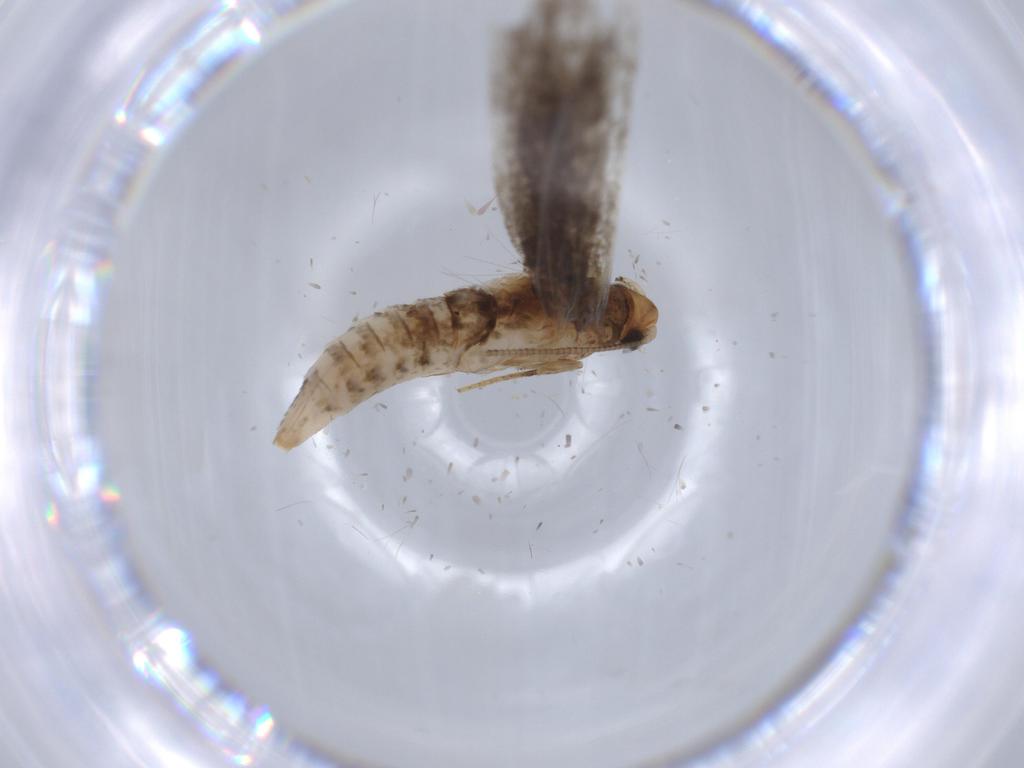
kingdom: Animalia
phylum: Arthropoda
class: Insecta
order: Lepidoptera
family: Tineidae
